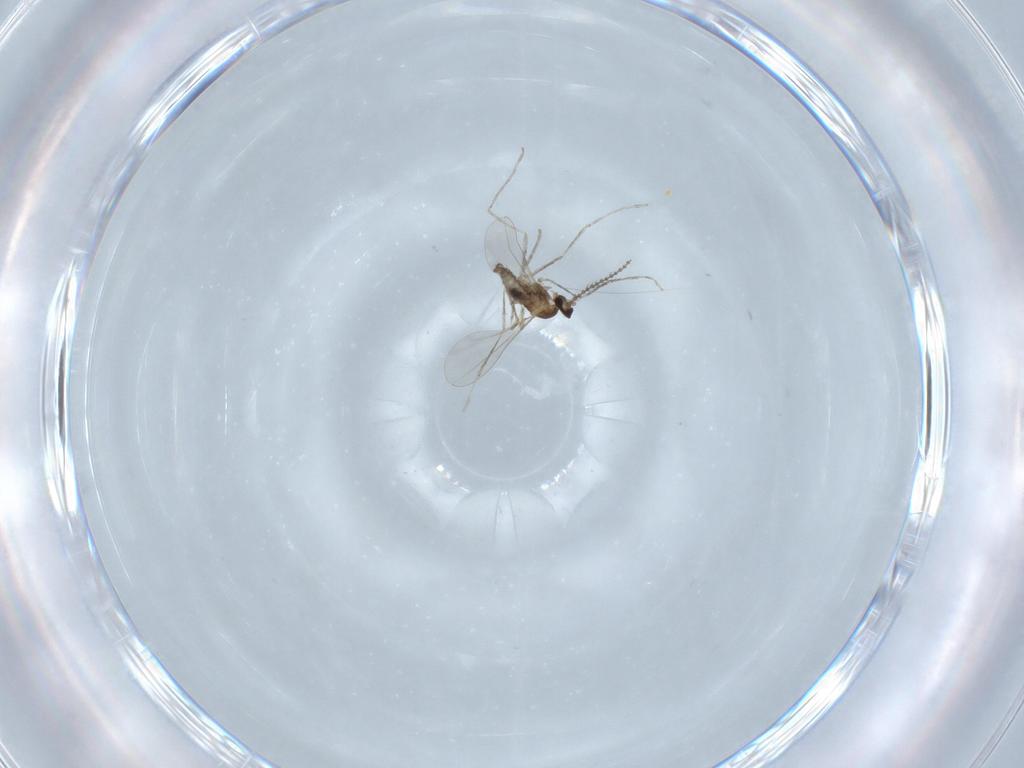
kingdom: Animalia
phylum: Arthropoda
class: Insecta
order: Diptera
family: Cecidomyiidae
